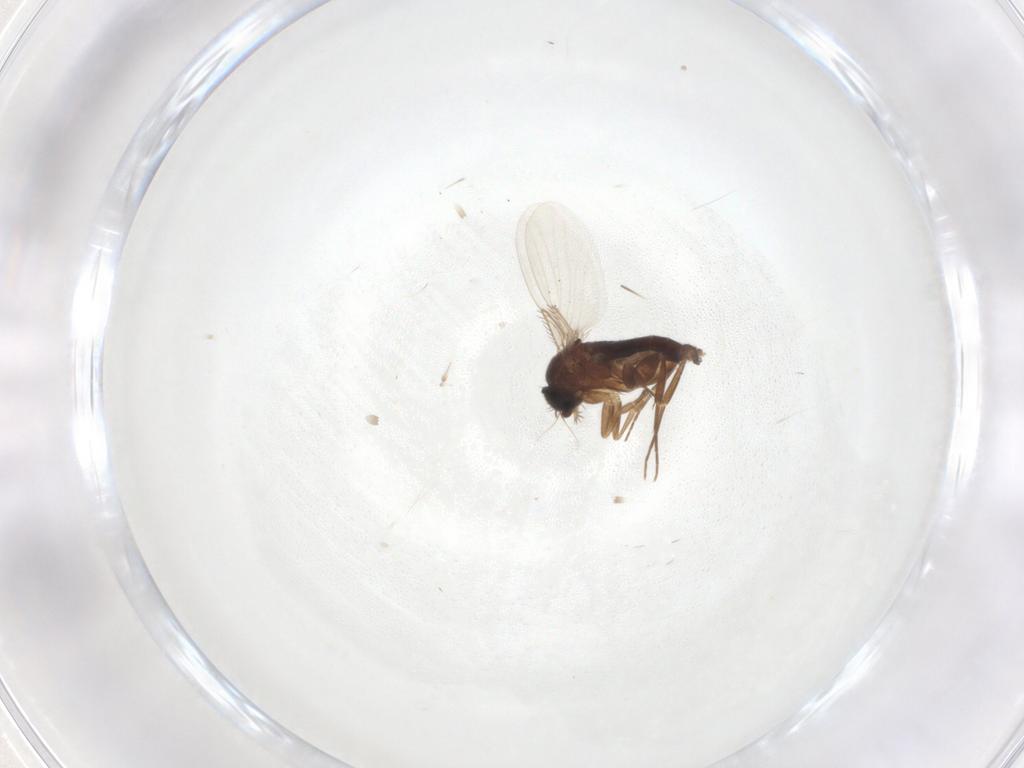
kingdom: Animalia
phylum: Arthropoda
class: Insecta
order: Diptera
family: Phoridae
